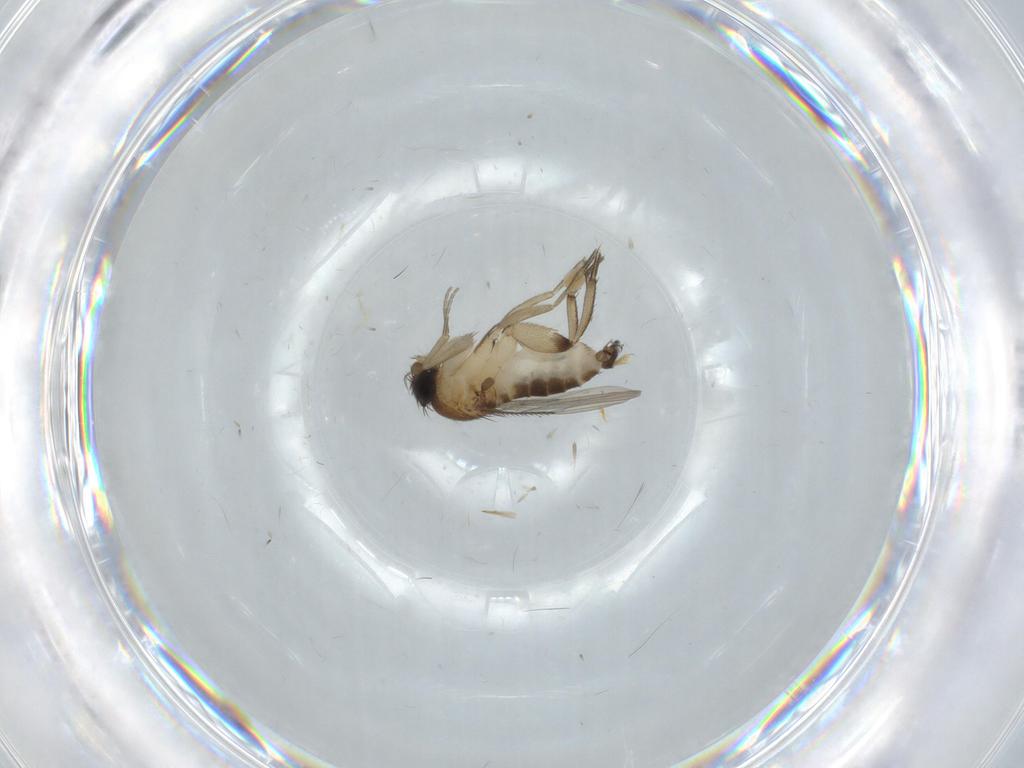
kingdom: Animalia
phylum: Arthropoda
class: Insecta
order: Diptera
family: Phoridae
